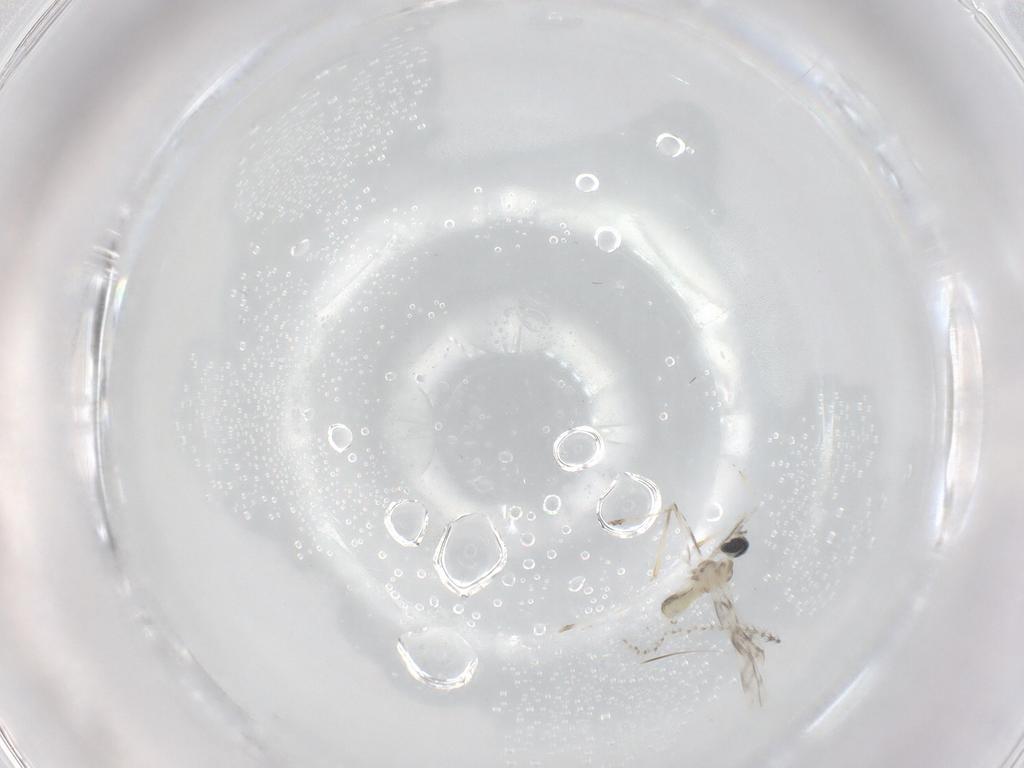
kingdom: Animalia
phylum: Arthropoda
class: Insecta
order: Diptera
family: Cecidomyiidae
